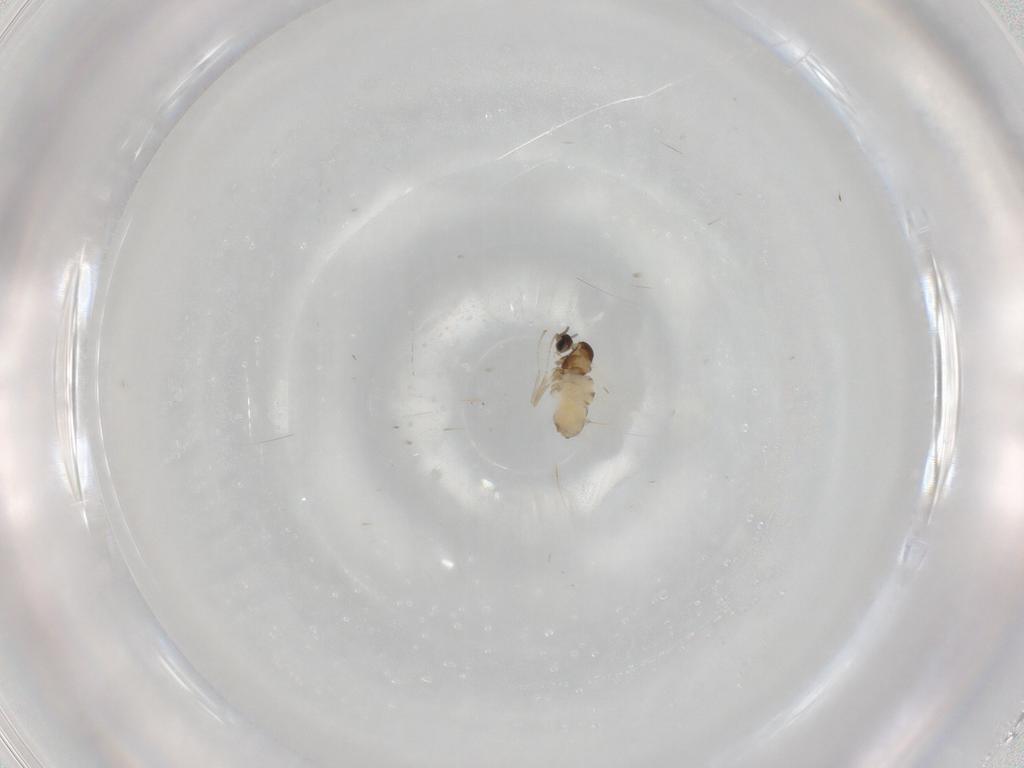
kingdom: Animalia
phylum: Arthropoda
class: Insecta
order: Diptera
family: Cecidomyiidae
